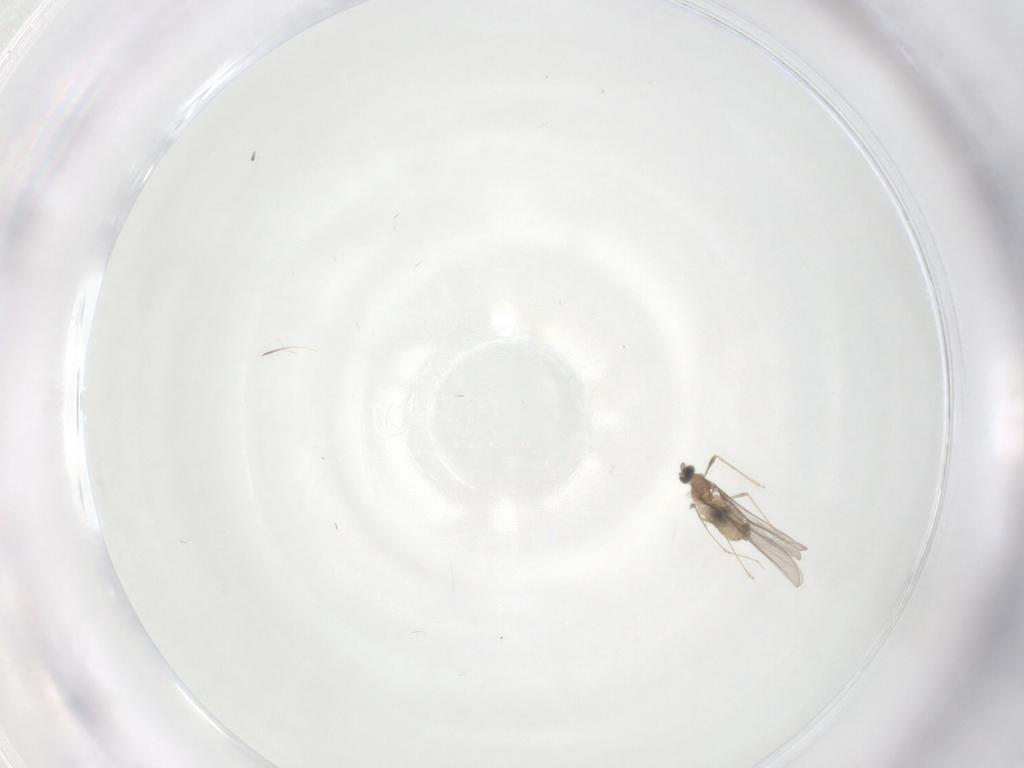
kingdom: Animalia
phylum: Arthropoda
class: Insecta
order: Diptera
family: Cecidomyiidae
